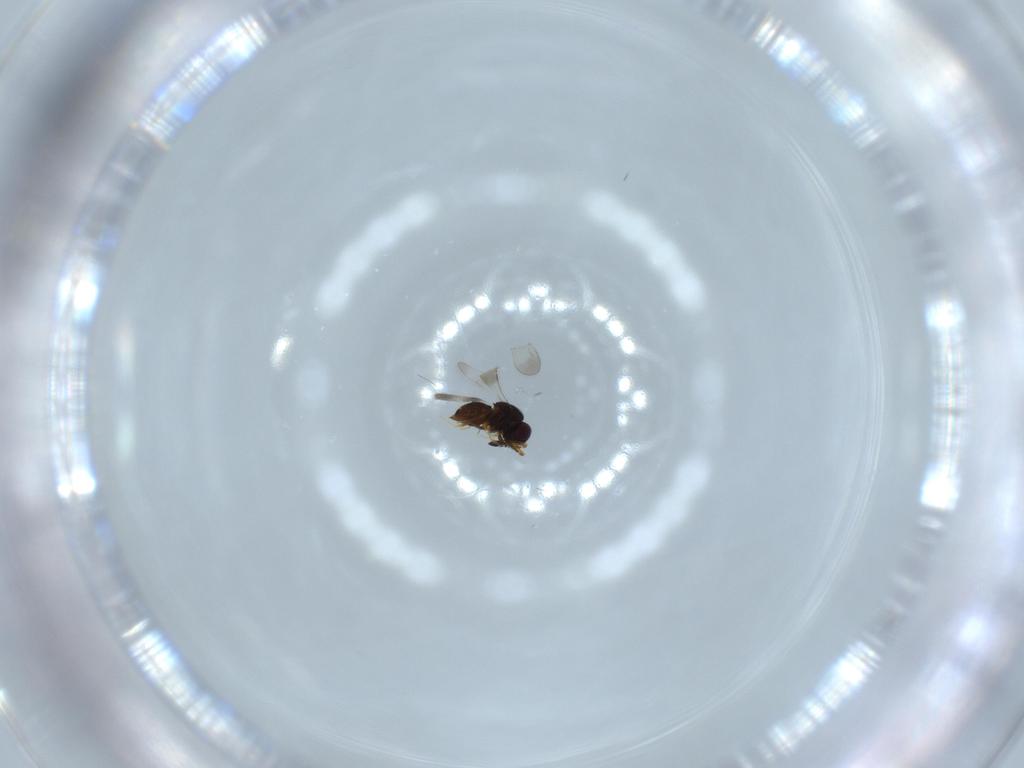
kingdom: Animalia
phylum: Arthropoda
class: Insecta
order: Hymenoptera
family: Ceraphronidae
